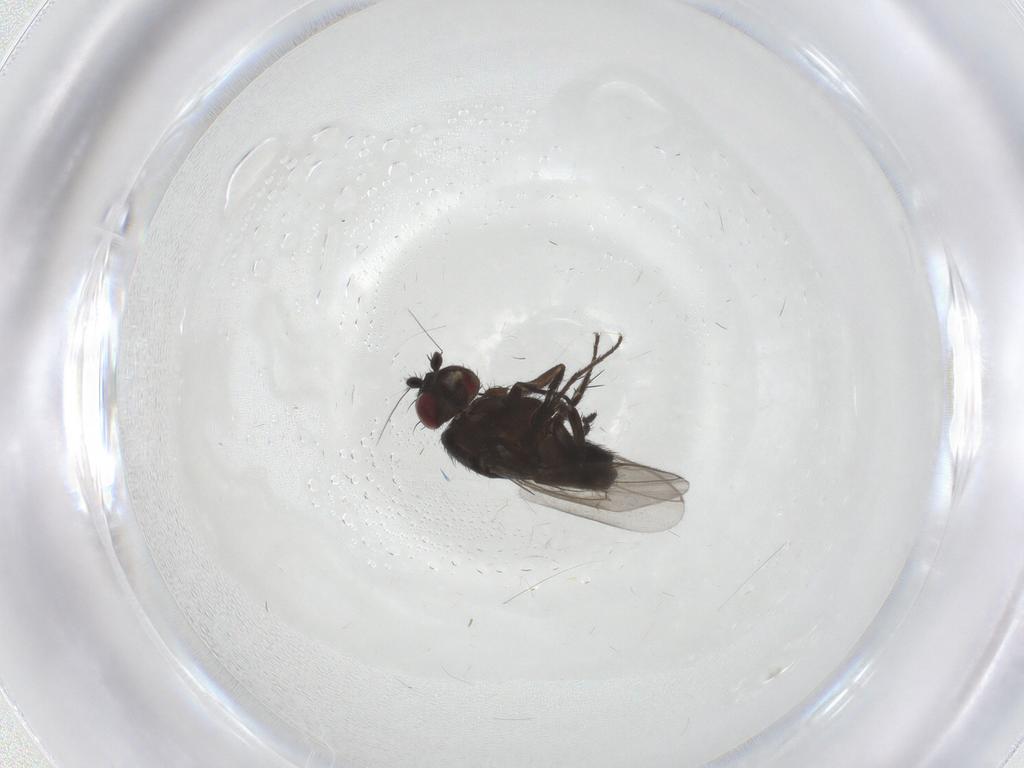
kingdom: Animalia
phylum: Arthropoda
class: Insecta
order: Diptera
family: Sphaeroceridae
